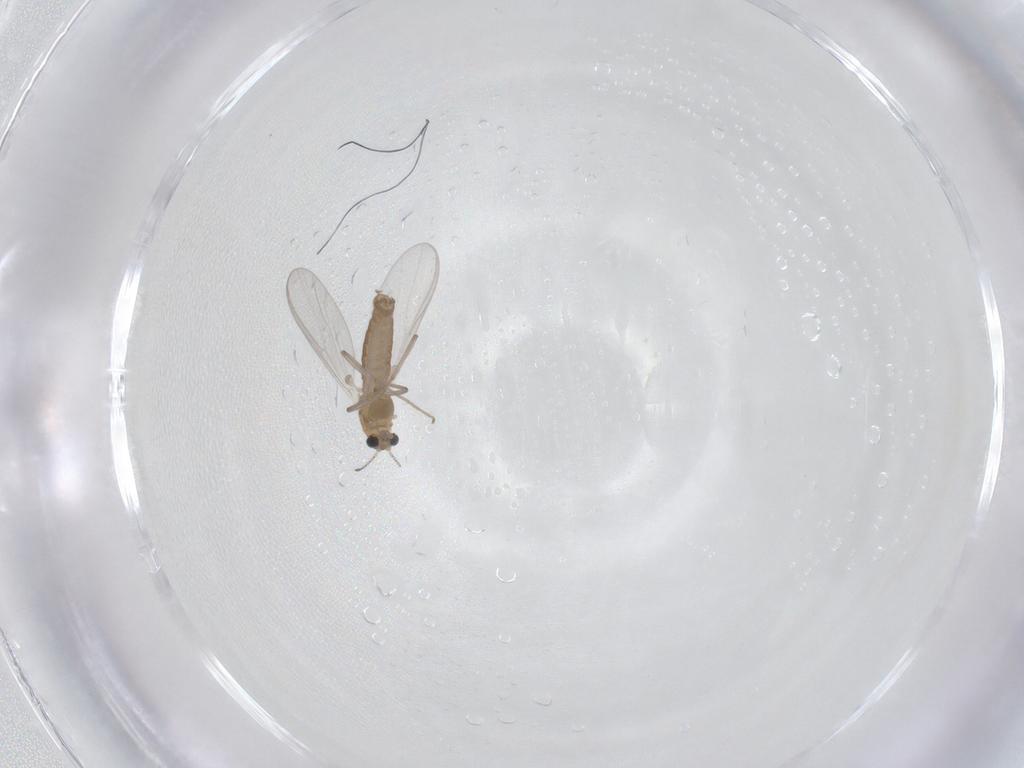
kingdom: Animalia
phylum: Arthropoda
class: Insecta
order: Diptera
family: Chironomidae
